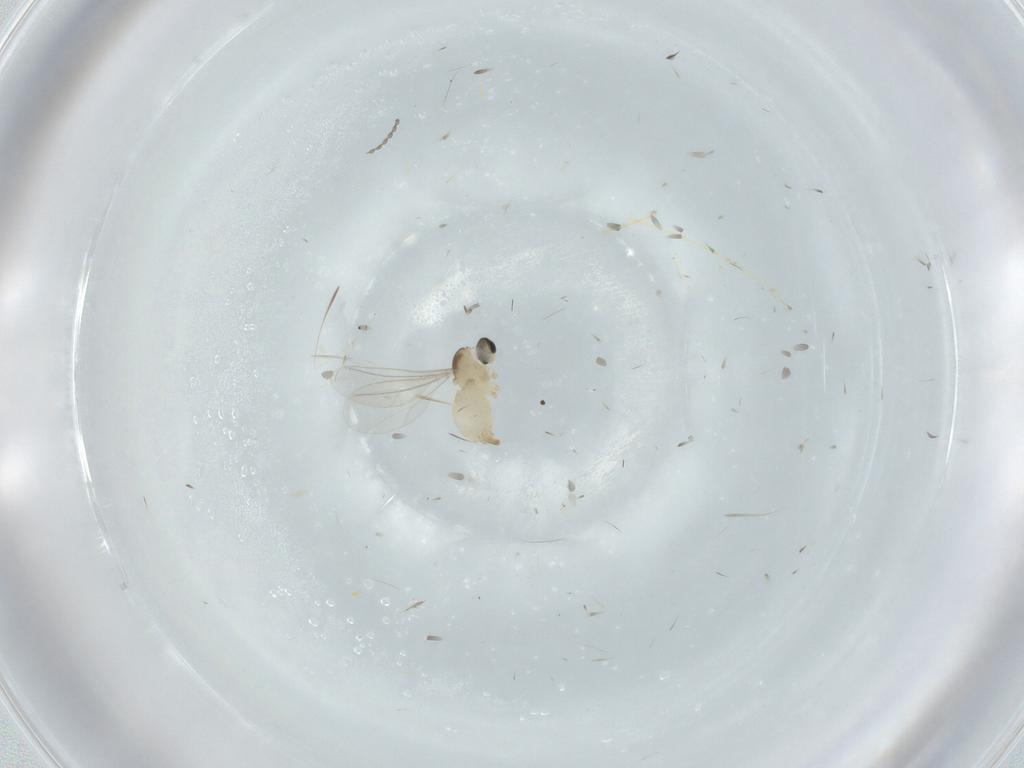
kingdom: Animalia
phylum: Arthropoda
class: Insecta
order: Diptera
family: Cecidomyiidae
